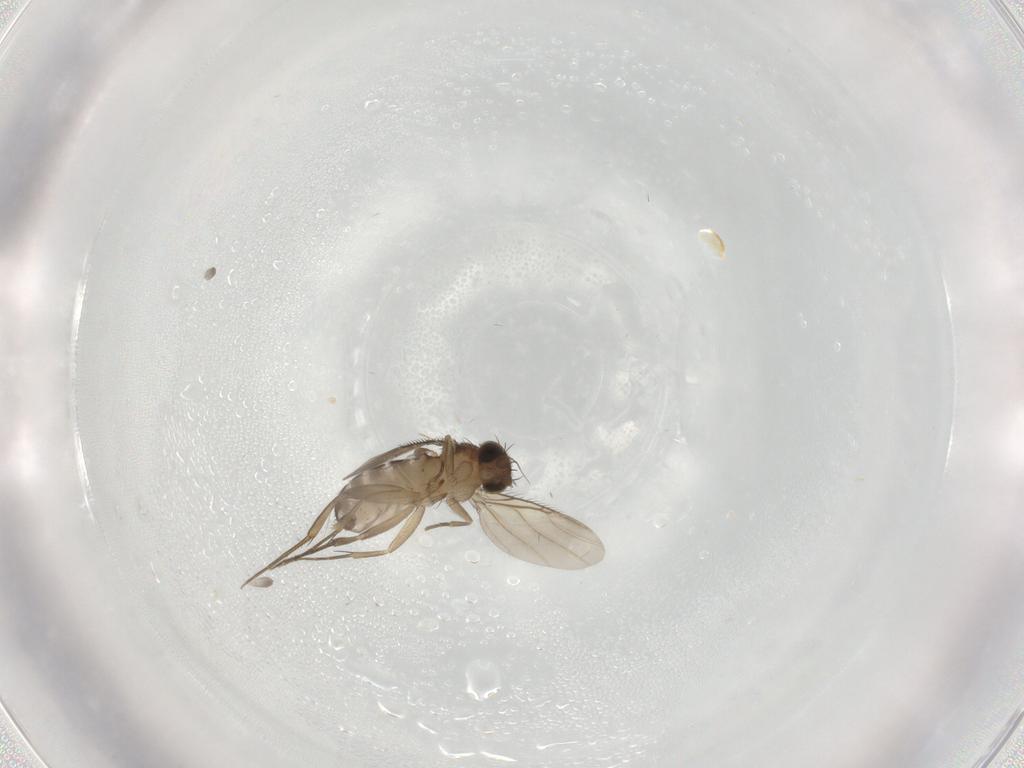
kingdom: Animalia
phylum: Arthropoda
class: Insecta
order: Diptera
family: Phoridae
